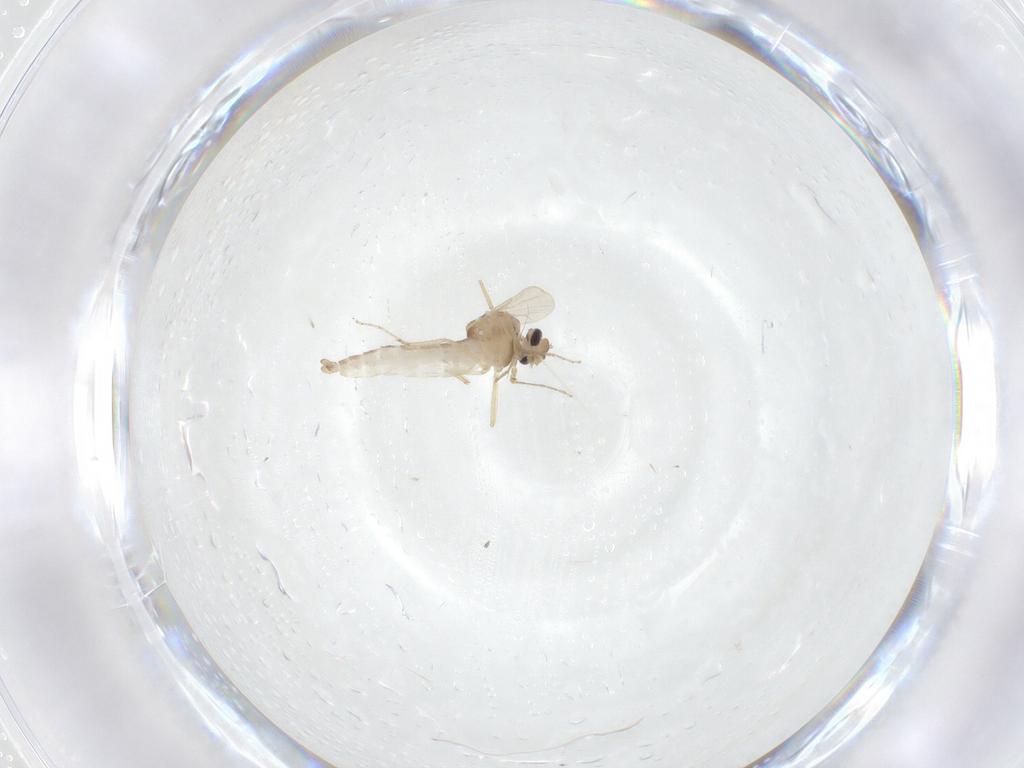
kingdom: Animalia
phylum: Arthropoda
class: Insecta
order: Diptera
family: Ceratopogonidae
